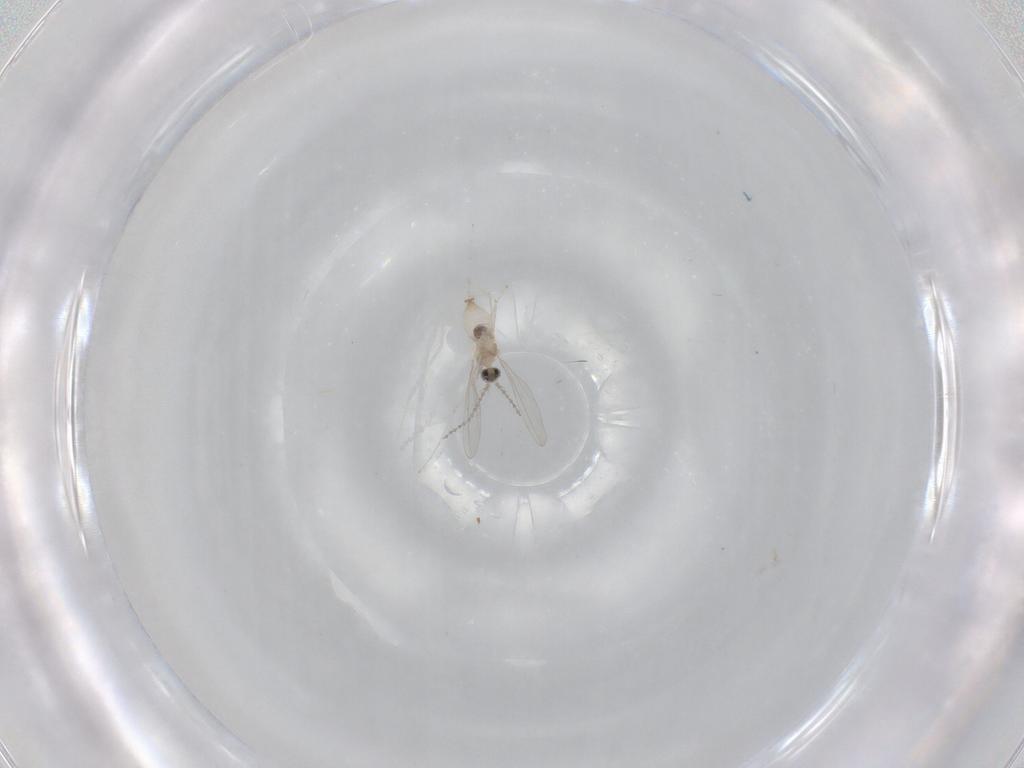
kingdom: Animalia
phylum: Arthropoda
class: Insecta
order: Diptera
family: Cecidomyiidae
